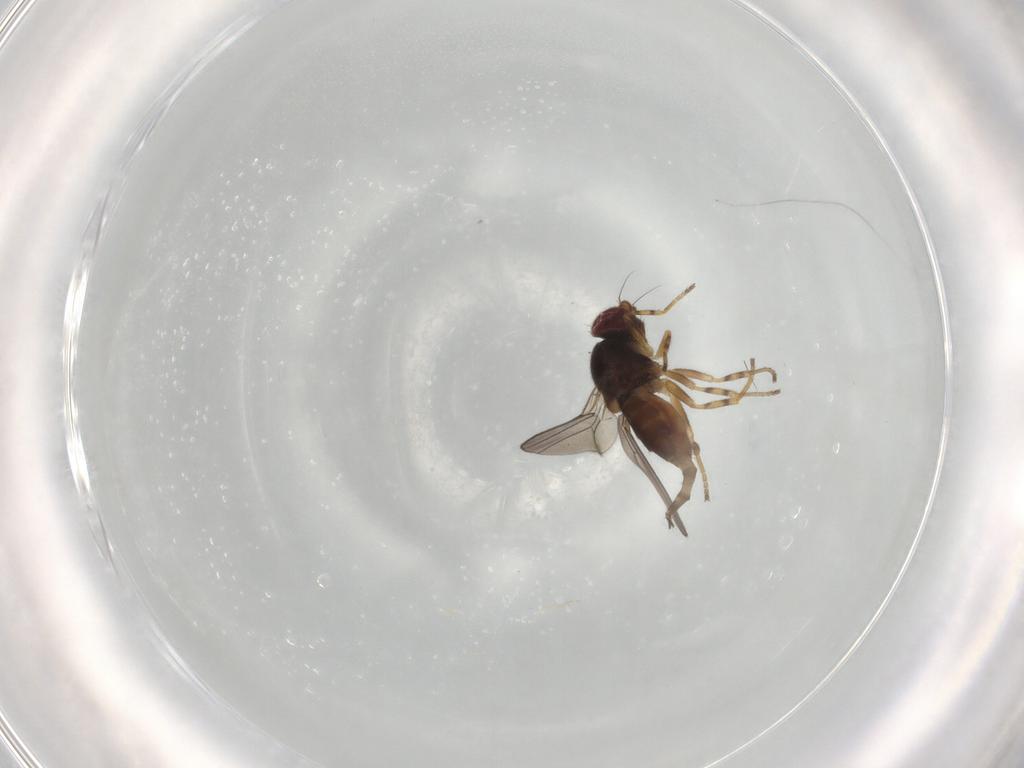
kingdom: Animalia
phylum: Arthropoda
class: Insecta
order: Diptera
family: Chloropidae
